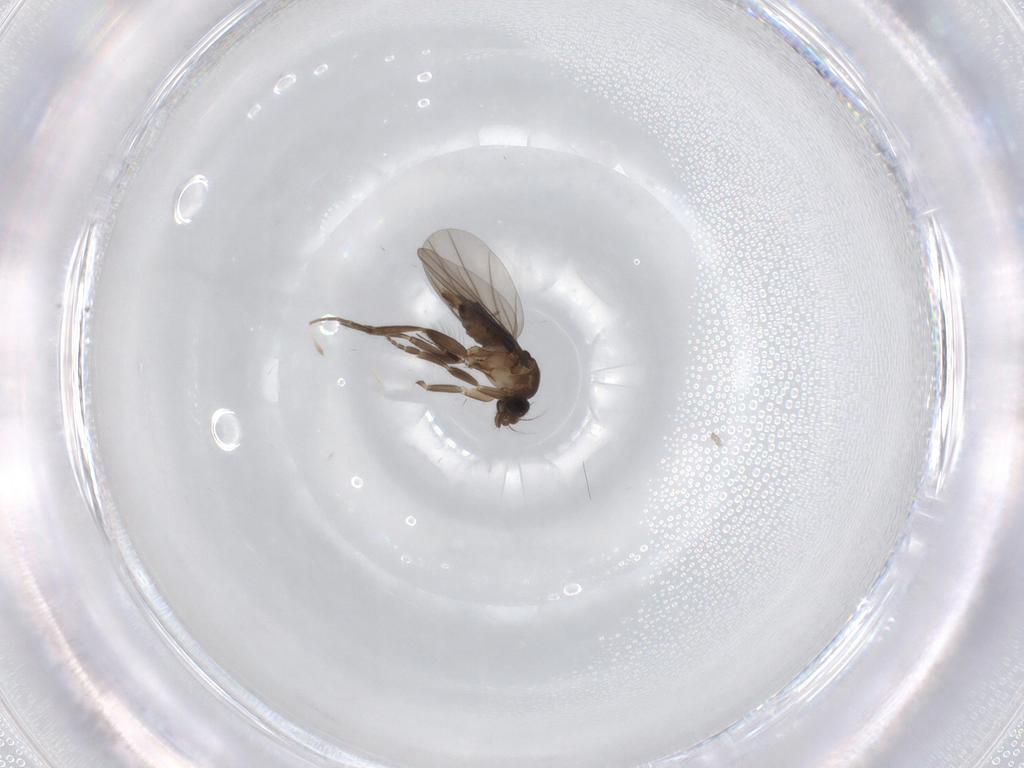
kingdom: Animalia
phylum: Arthropoda
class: Insecta
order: Diptera
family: Phoridae
